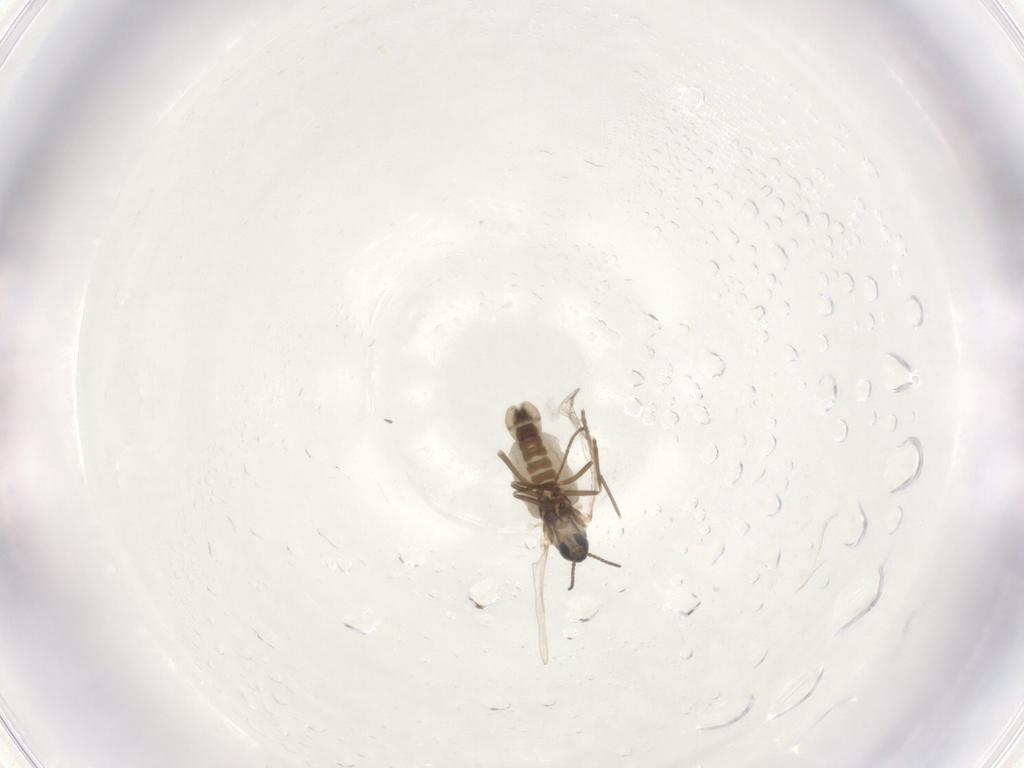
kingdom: Animalia
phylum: Arthropoda
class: Insecta
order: Diptera
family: Cecidomyiidae
